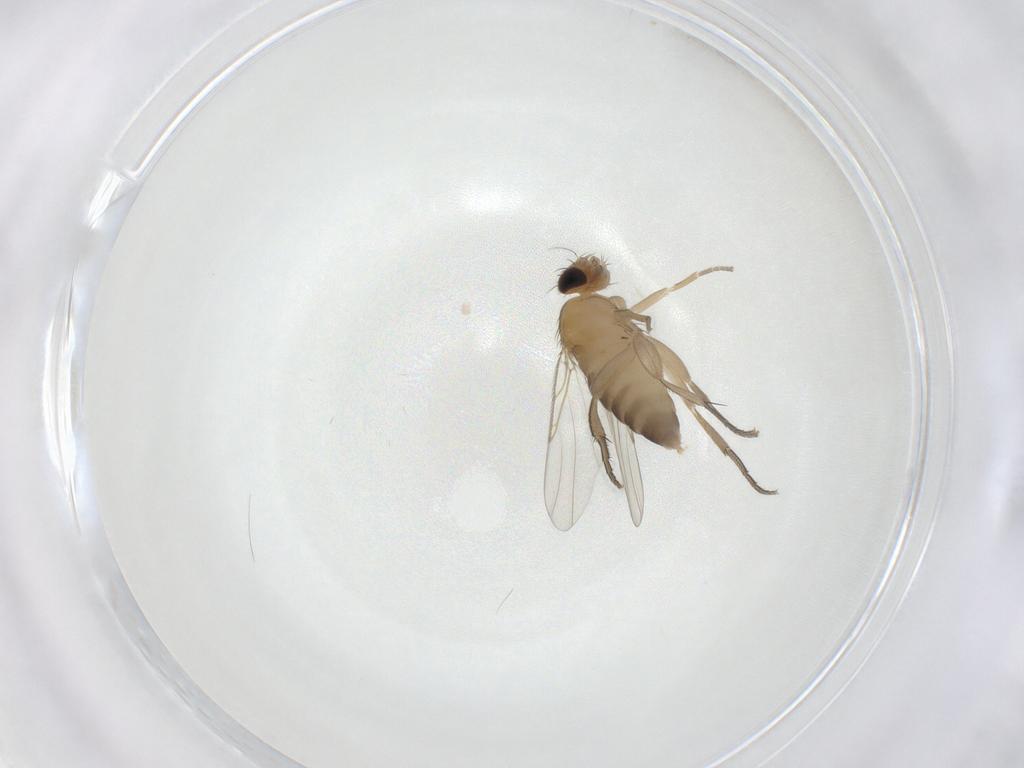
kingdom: Animalia
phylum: Arthropoda
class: Insecta
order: Diptera
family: Phoridae
